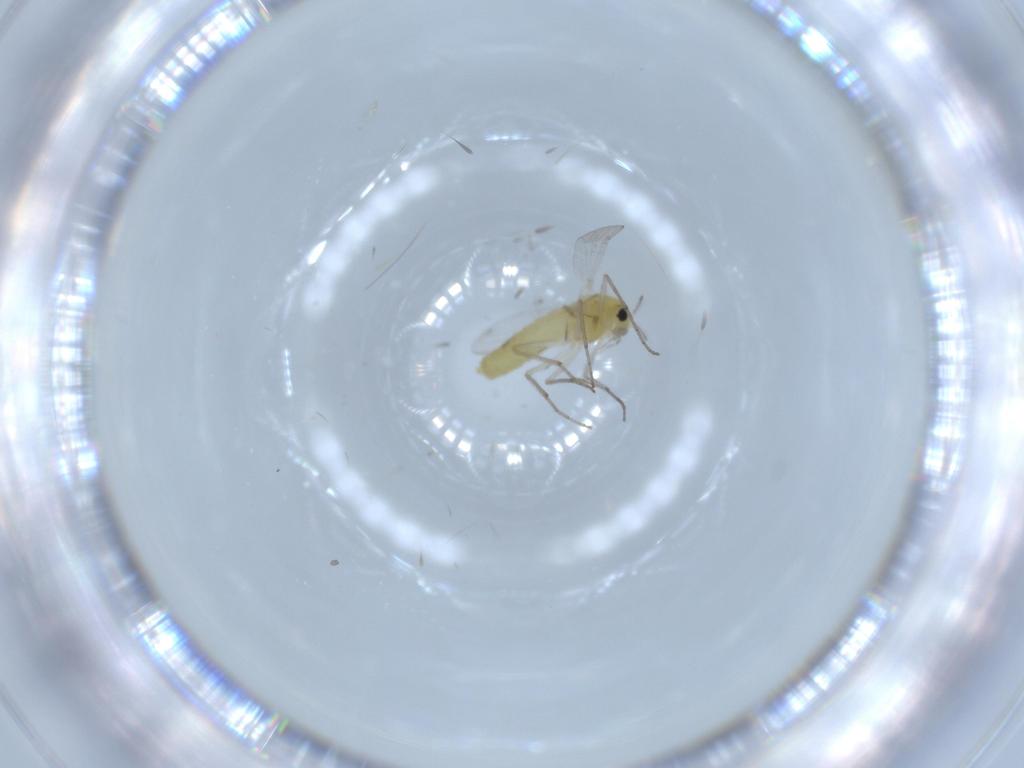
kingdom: Animalia
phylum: Arthropoda
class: Insecta
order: Diptera
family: Chironomidae
